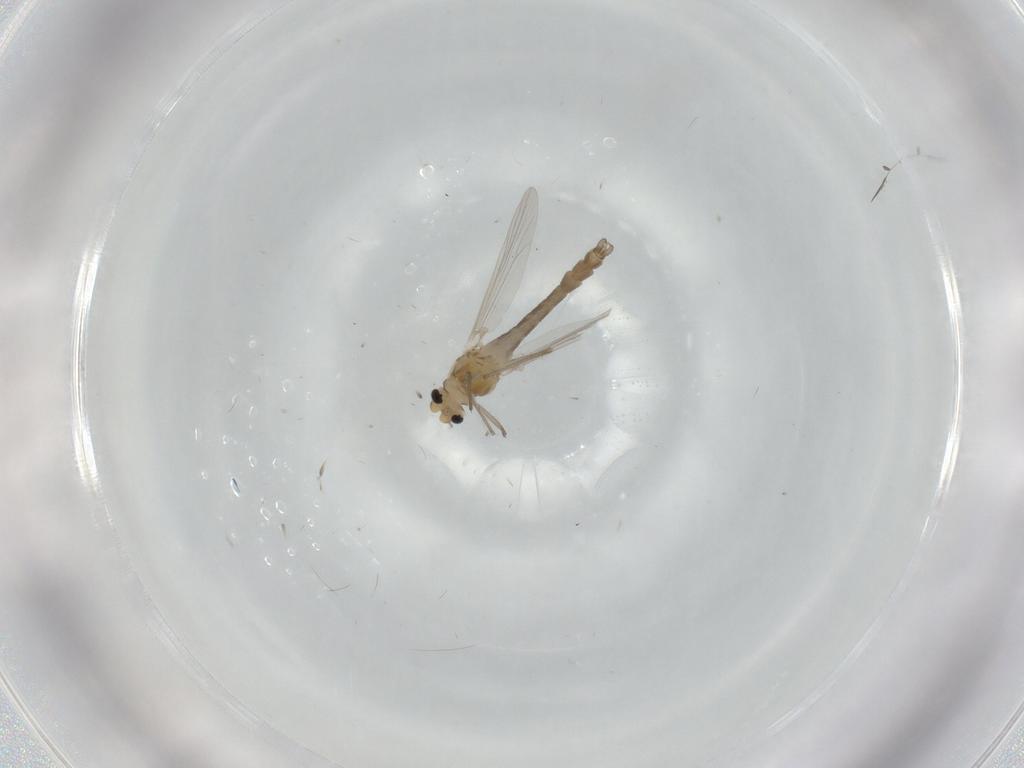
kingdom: Animalia
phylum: Arthropoda
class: Insecta
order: Diptera
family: Chironomidae
